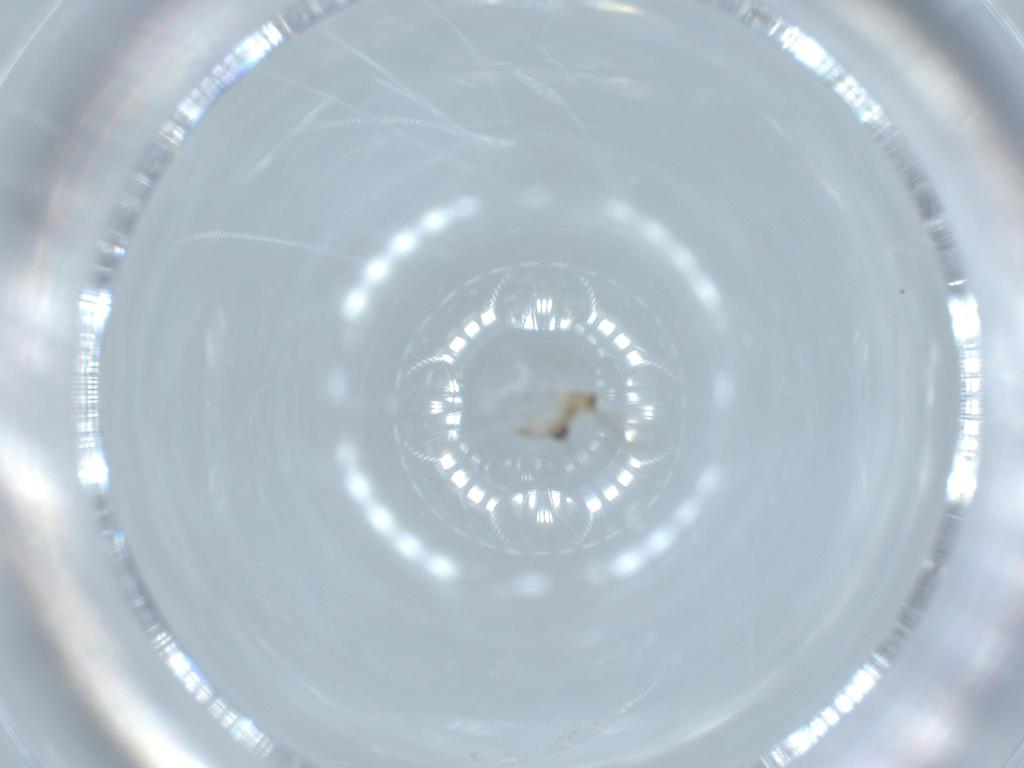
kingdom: Animalia
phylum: Arthropoda
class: Insecta
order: Diptera
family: Cecidomyiidae
